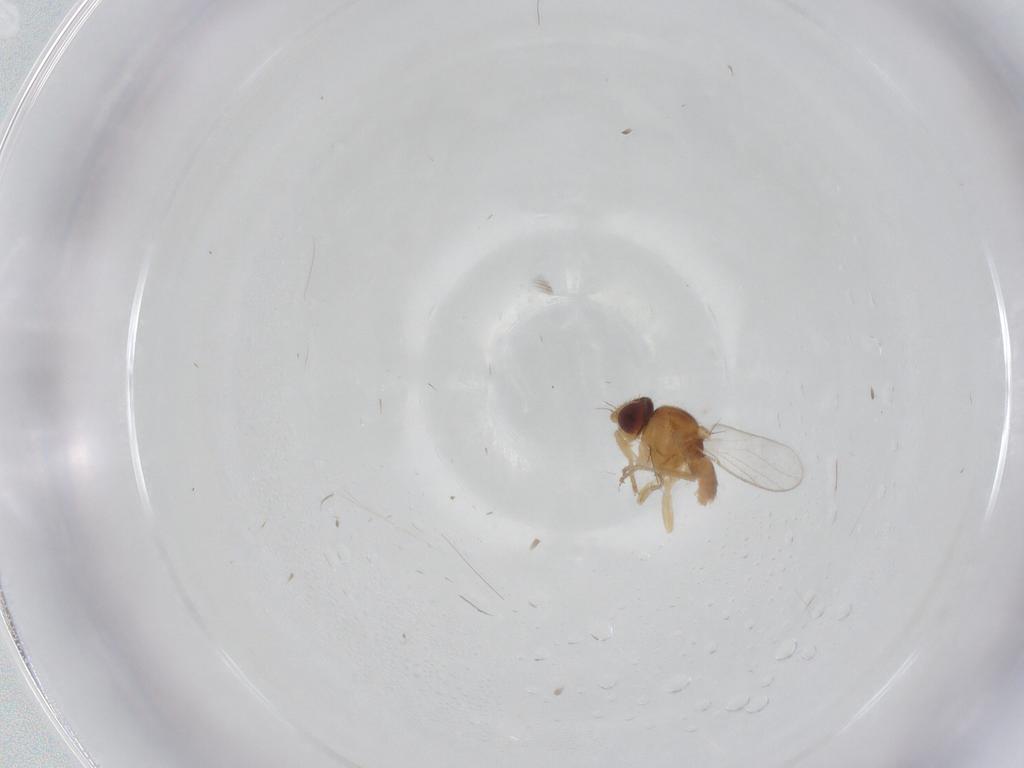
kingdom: Animalia
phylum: Arthropoda
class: Insecta
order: Diptera
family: Chloropidae
